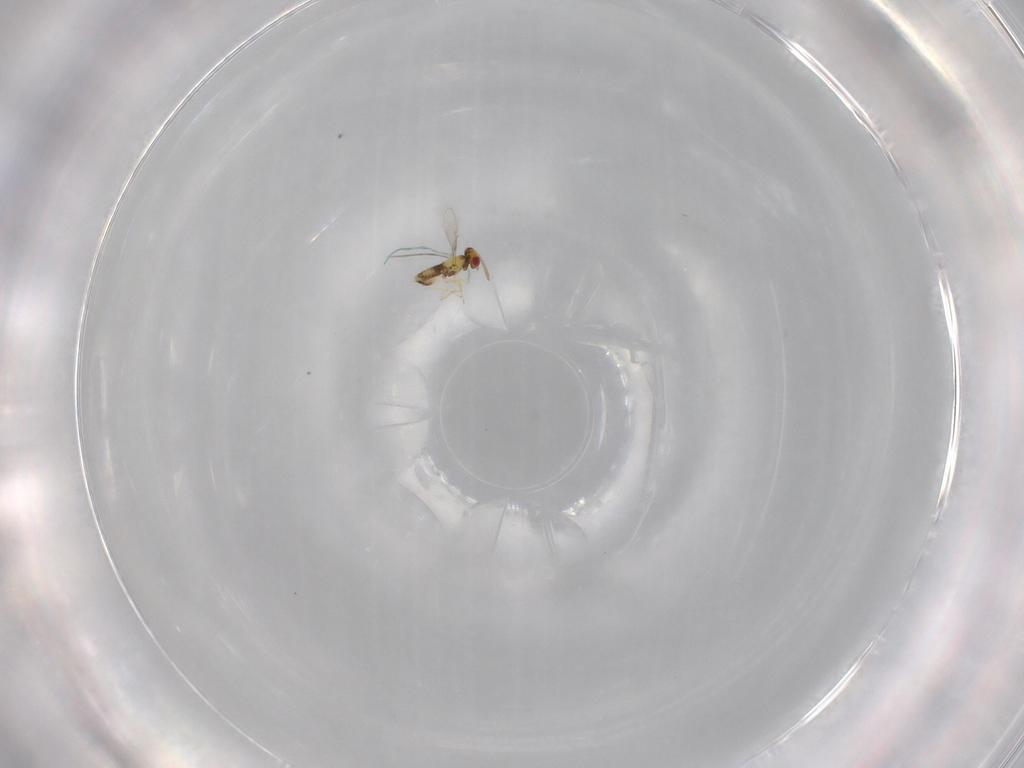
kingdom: Animalia
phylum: Arthropoda
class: Insecta
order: Hymenoptera
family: Aphelinidae
